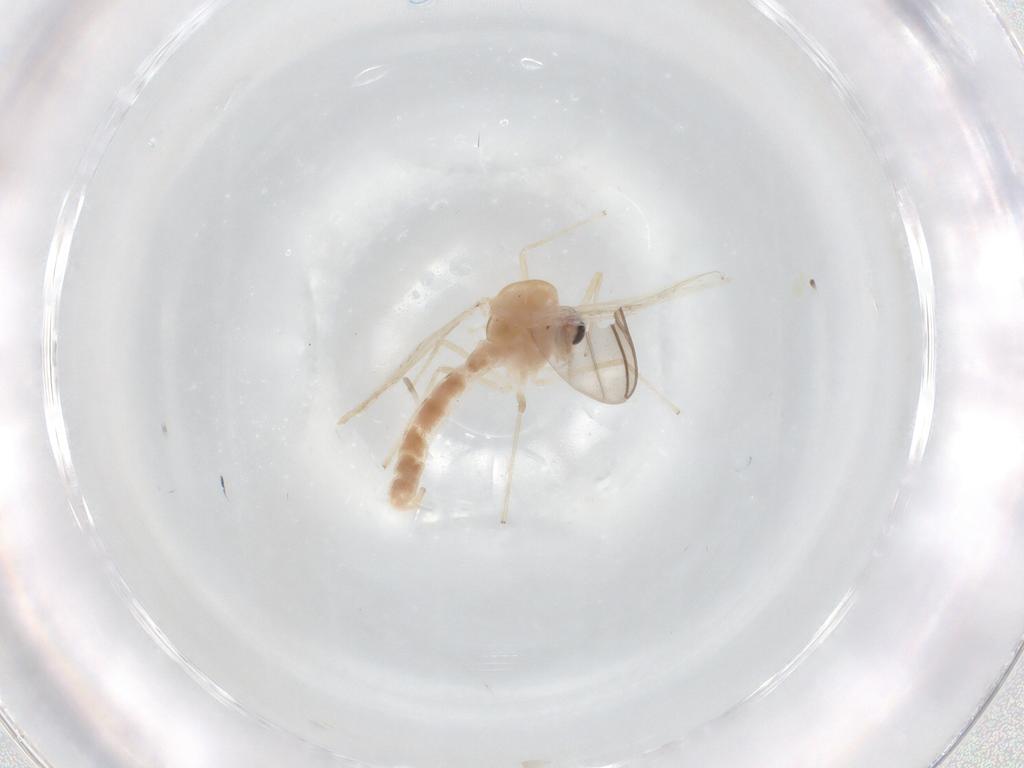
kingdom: Animalia
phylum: Arthropoda
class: Insecta
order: Diptera
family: Chironomidae
